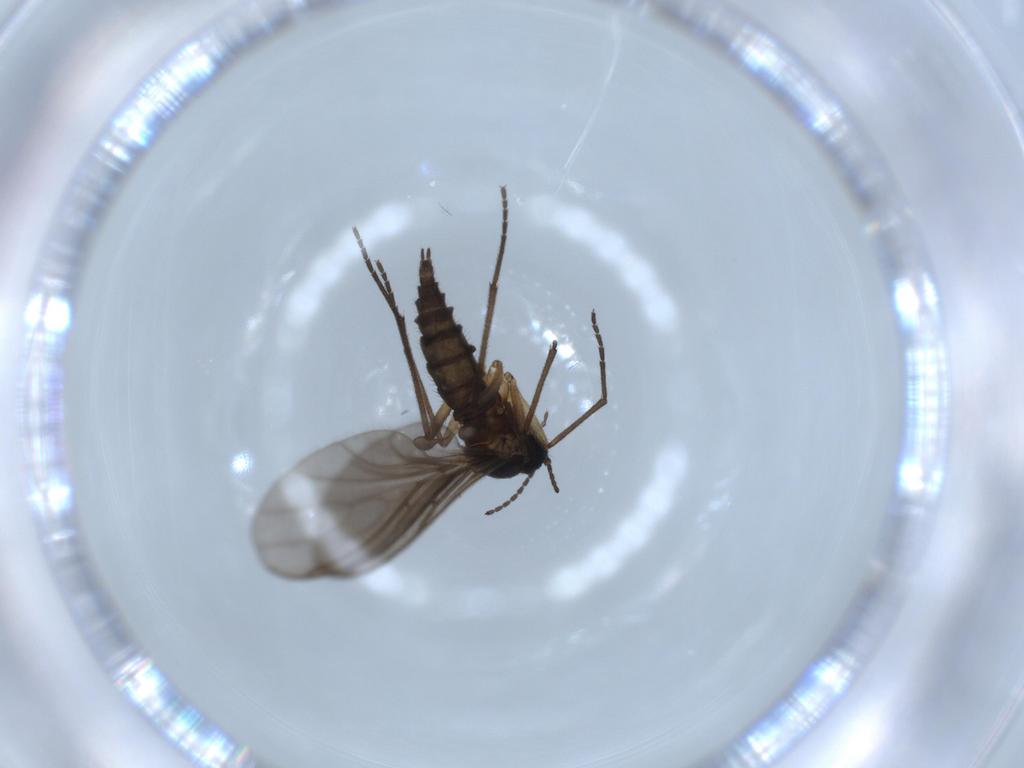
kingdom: Animalia
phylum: Arthropoda
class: Insecta
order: Diptera
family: Sciaridae
